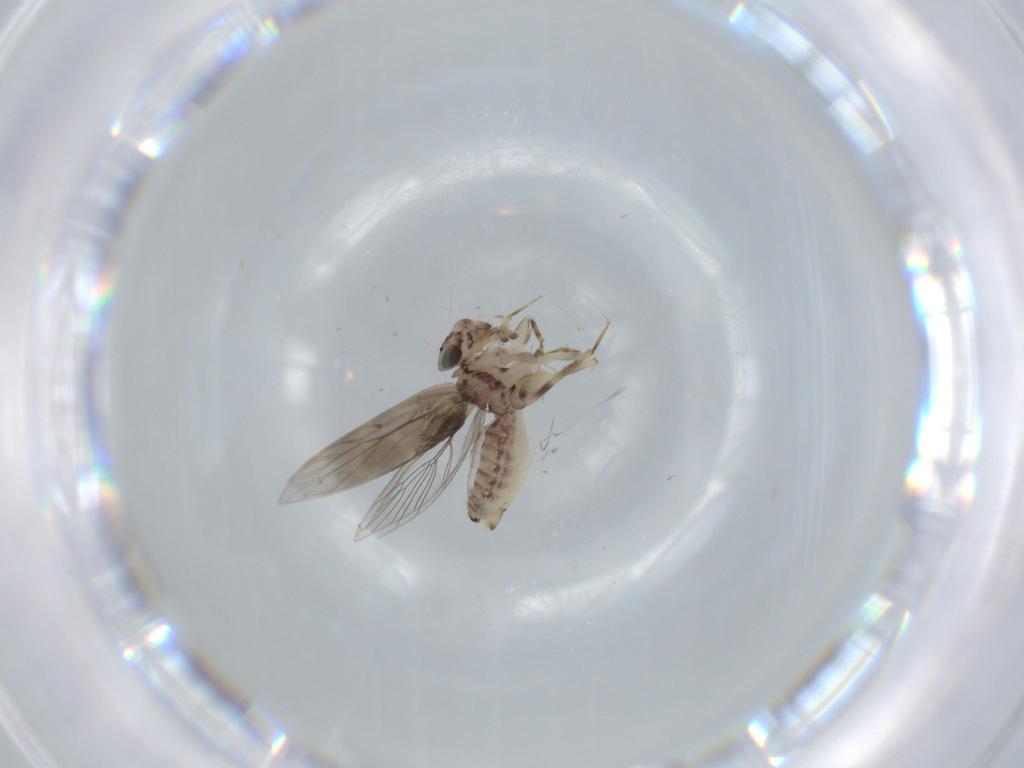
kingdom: Animalia
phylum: Arthropoda
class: Insecta
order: Psocodea
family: Lepidopsocidae
